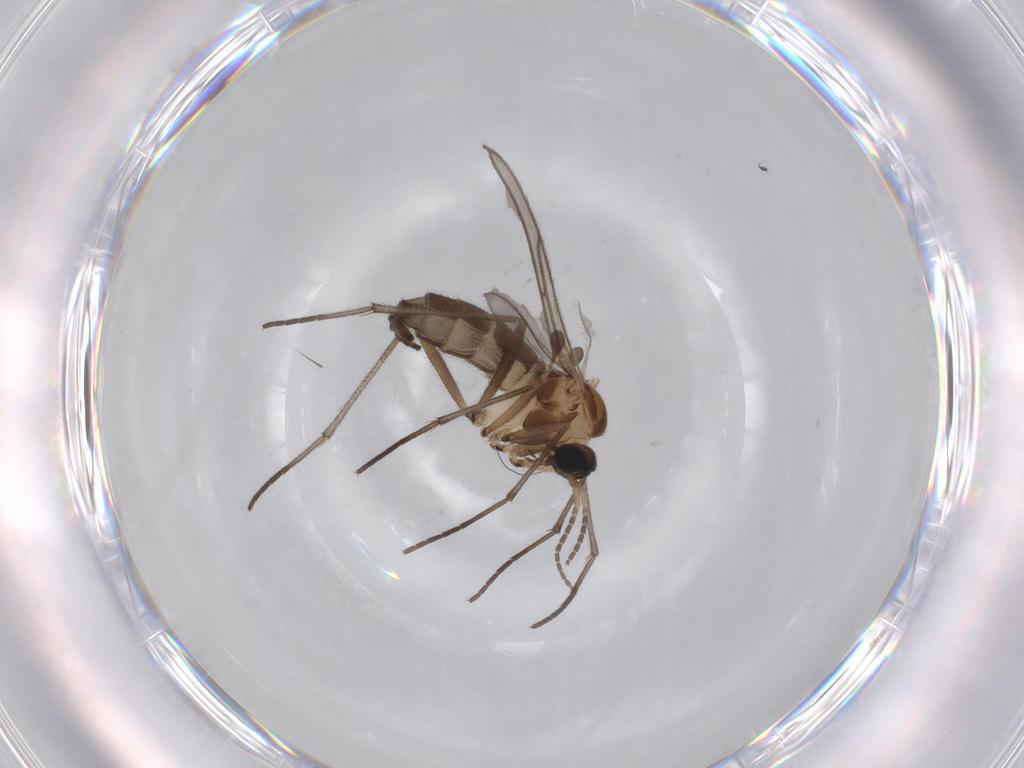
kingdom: Animalia
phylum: Arthropoda
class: Insecta
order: Diptera
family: Sciaridae
